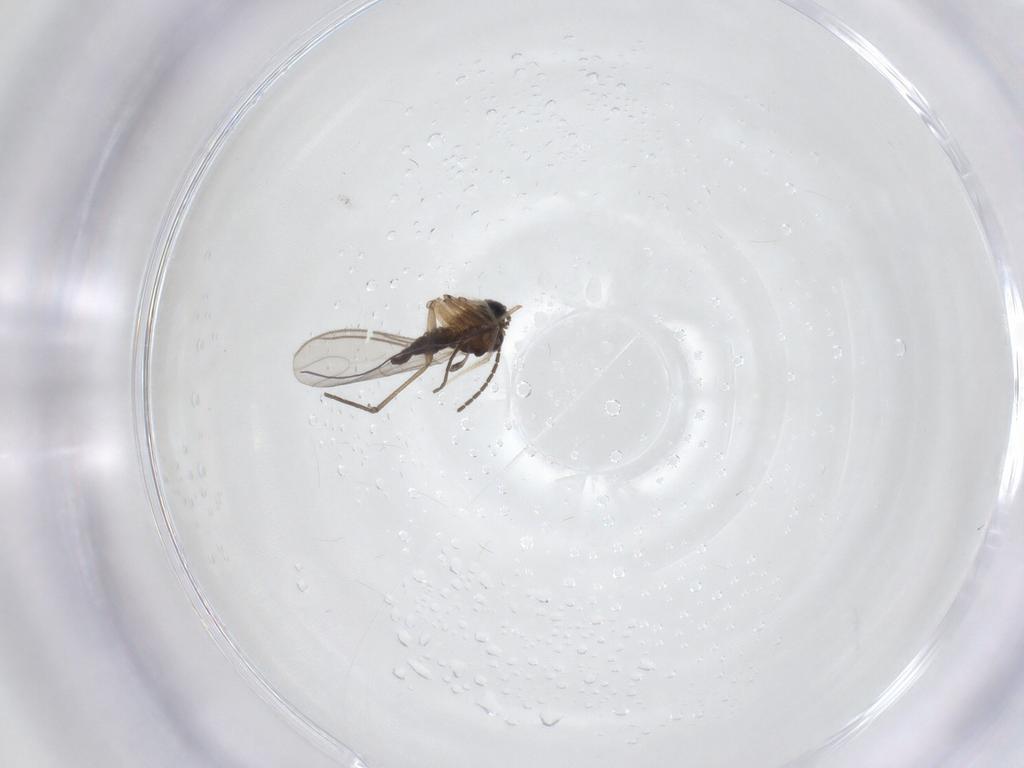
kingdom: Animalia
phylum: Arthropoda
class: Insecta
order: Diptera
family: Sciaridae
